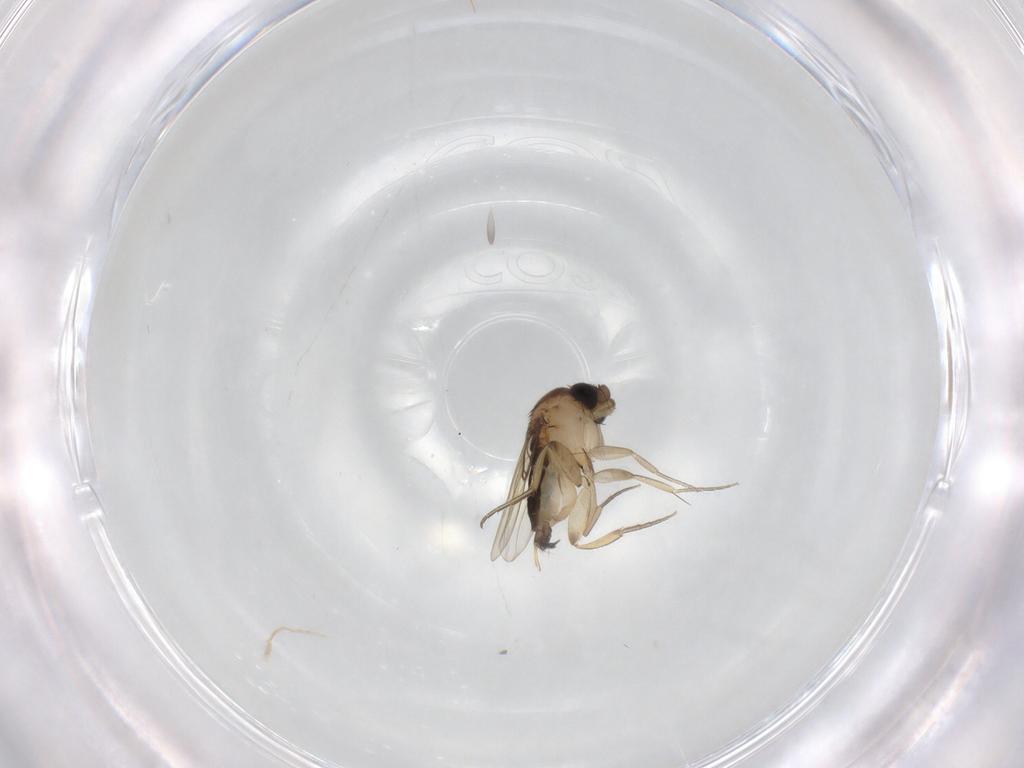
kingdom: Animalia
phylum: Arthropoda
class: Insecta
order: Diptera
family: Phoridae
